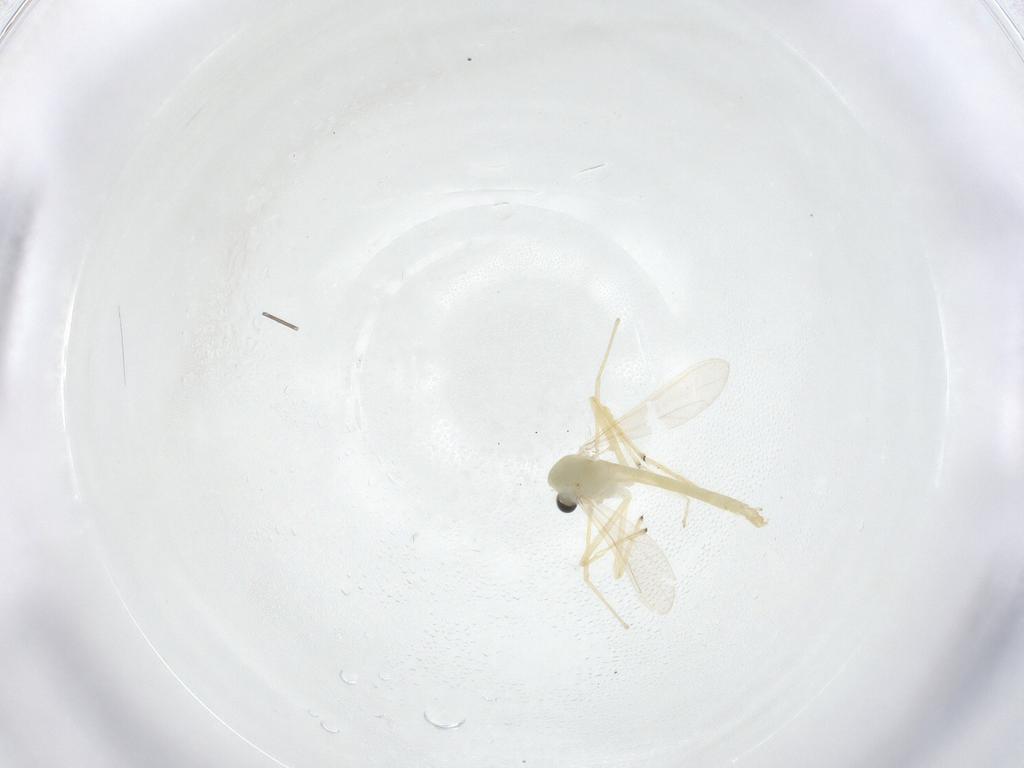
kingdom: Animalia
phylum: Arthropoda
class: Insecta
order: Diptera
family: Chironomidae
